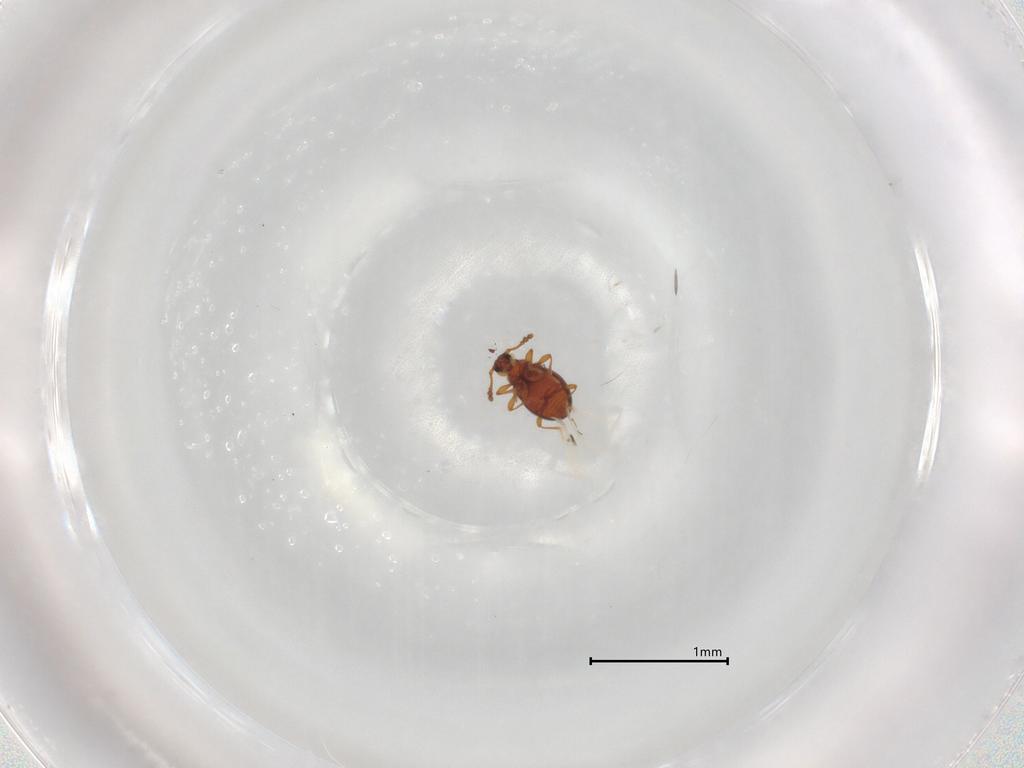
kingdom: Animalia
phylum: Arthropoda
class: Insecta
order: Coleoptera
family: Staphylinidae
